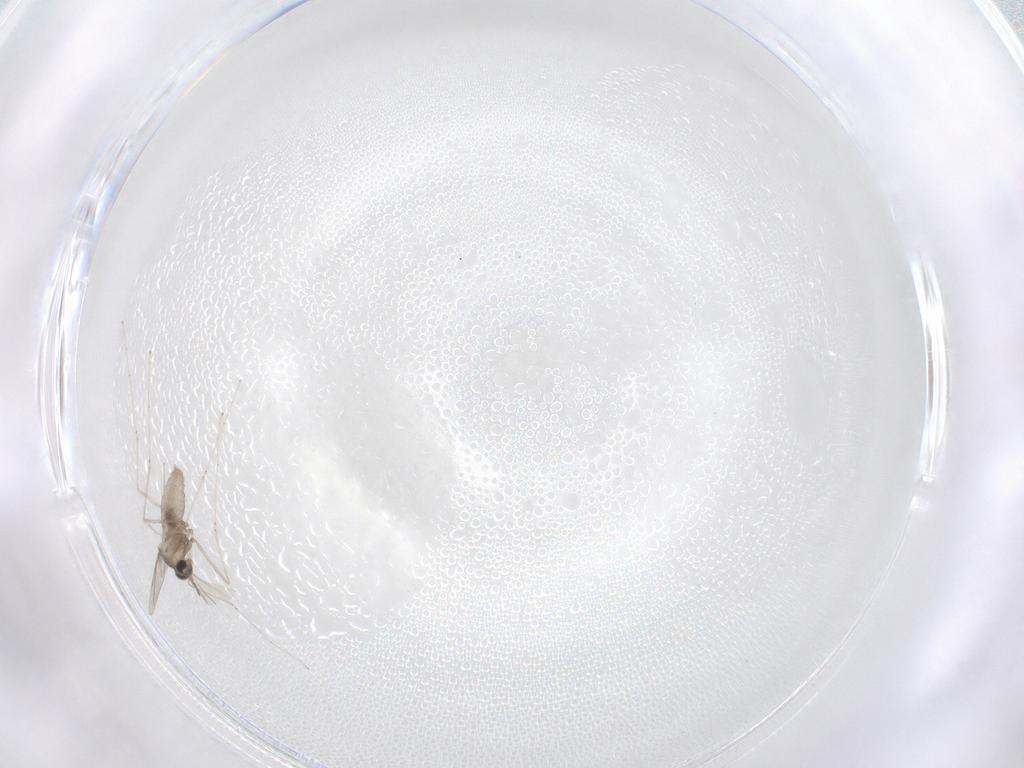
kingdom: Animalia
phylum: Arthropoda
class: Insecta
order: Diptera
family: Cecidomyiidae
